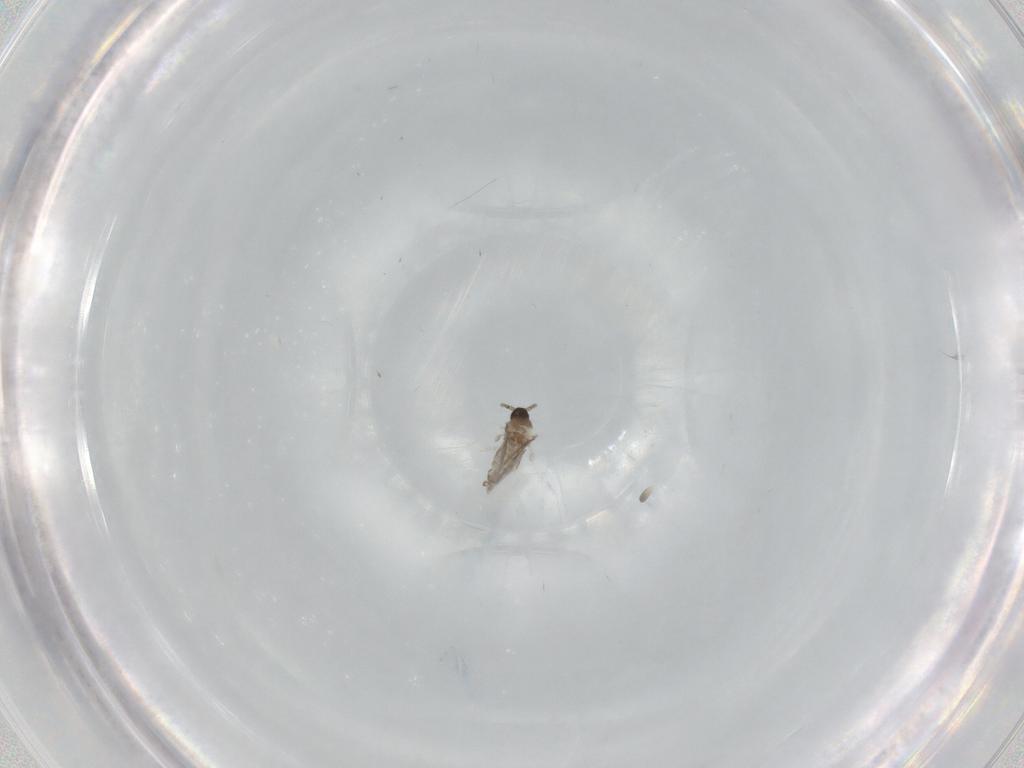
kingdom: Animalia
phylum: Arthropoda
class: Insecta
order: Diptera
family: Cecidomyiidae
